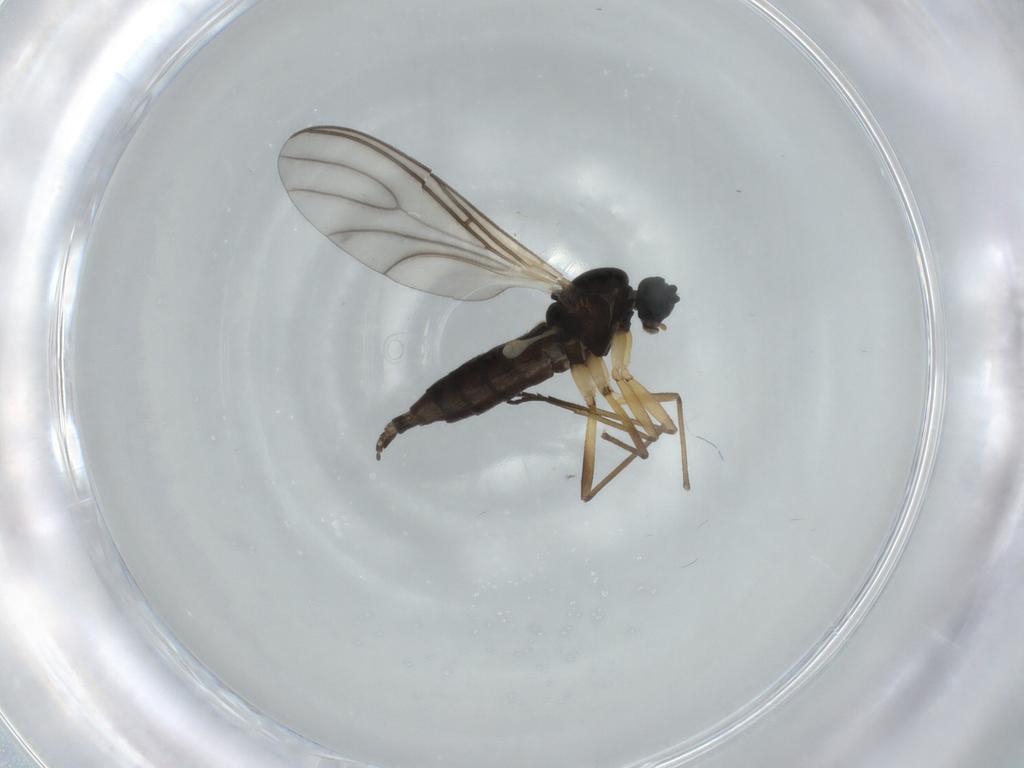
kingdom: Animalia
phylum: Arthropoda
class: Insecta
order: Diptera
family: Sciaridae
